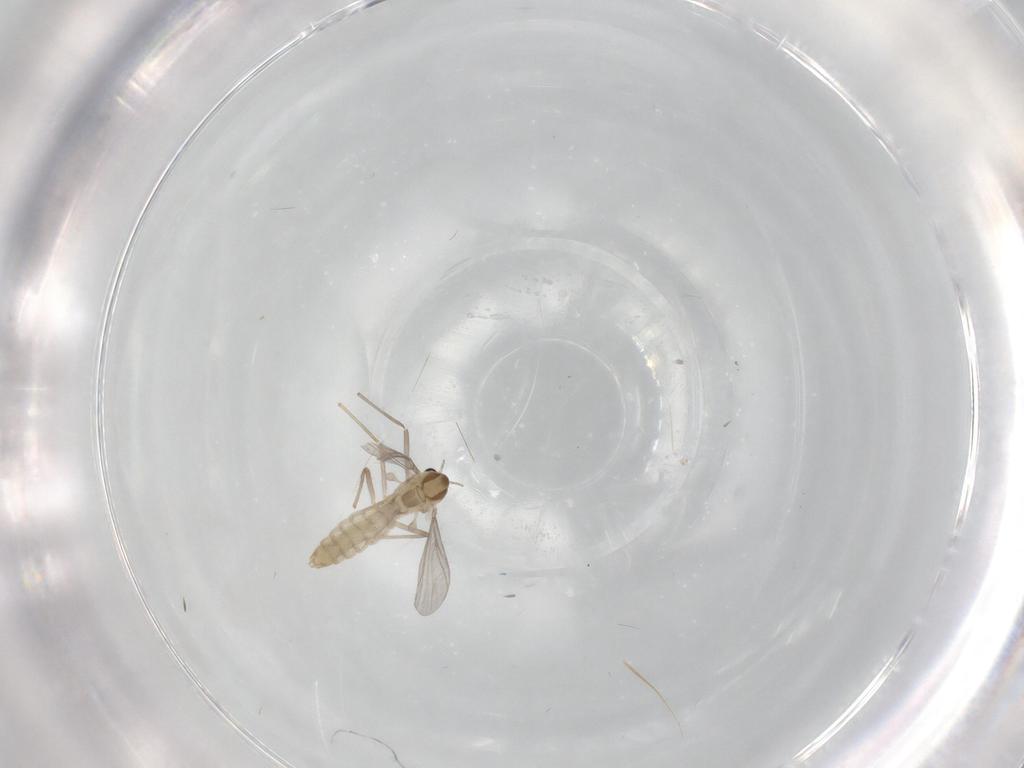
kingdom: Animalia
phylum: Arthropoda
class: Insecta
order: Diptera
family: Chironomidae
